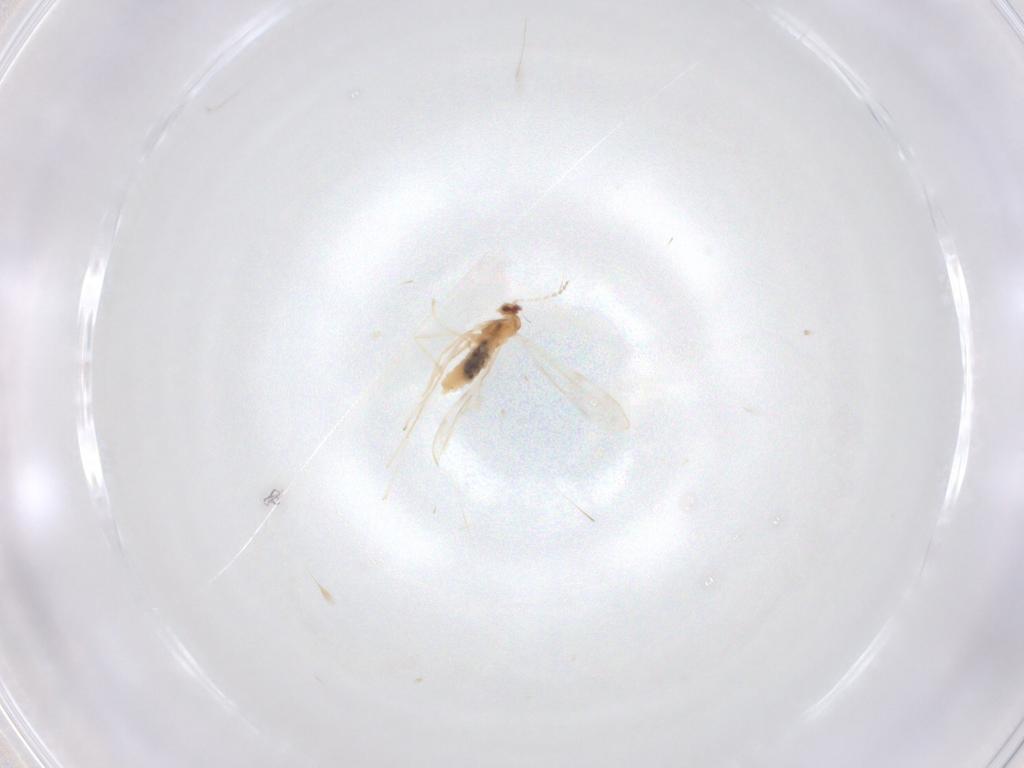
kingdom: Animalia
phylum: Arthropoda
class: Insecta
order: Diptera
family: Cecidomyiidae
